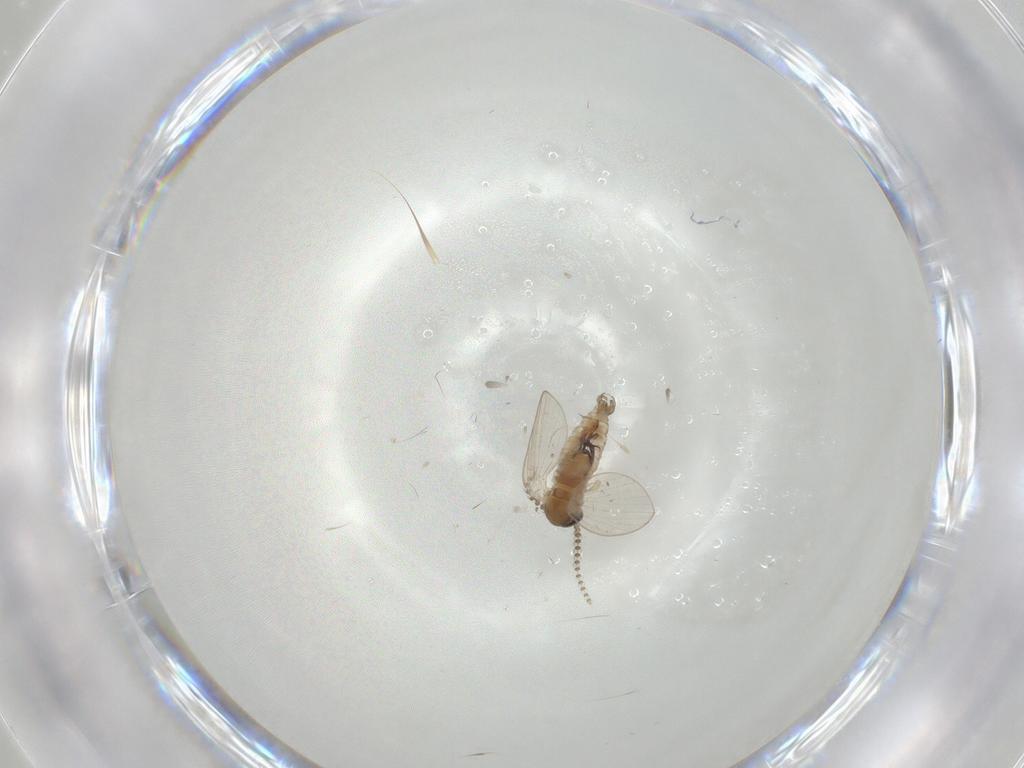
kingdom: Animalia
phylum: Arthropoda
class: Insecta
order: Diptera
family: Psychodidae
